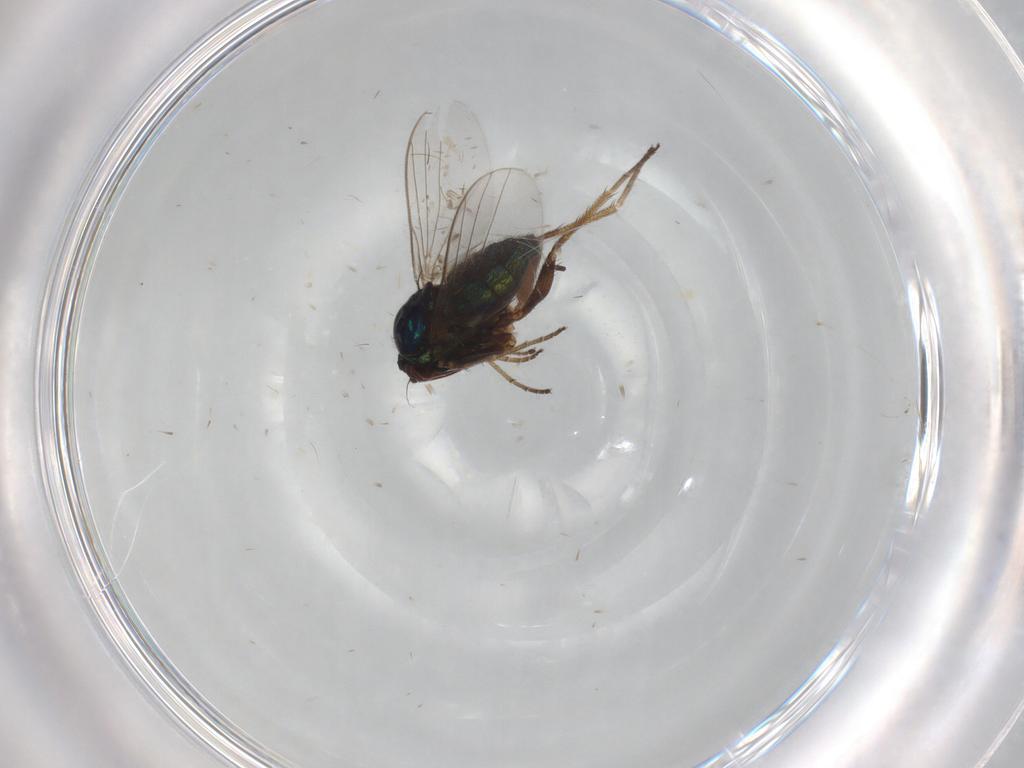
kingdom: Animalia
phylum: Arthropoda
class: Insecta
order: Diptera
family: Dolichopodidae
